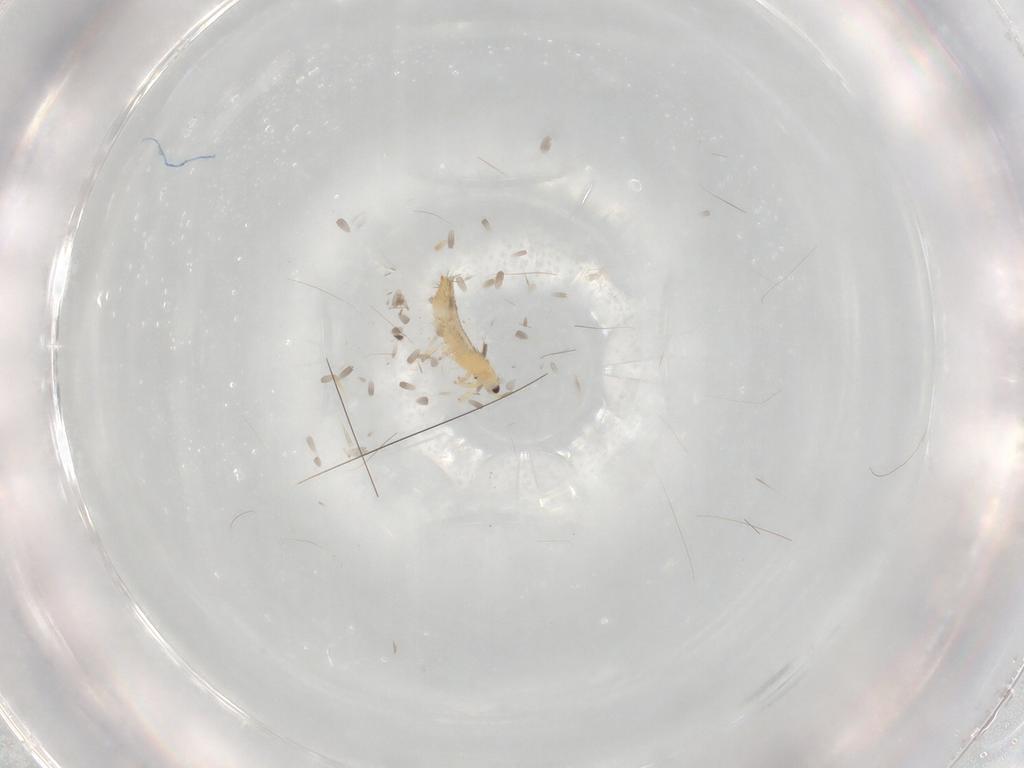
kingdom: Animalia
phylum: Arthropoda
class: Insecta
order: Thysanoptera
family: Thripidae
